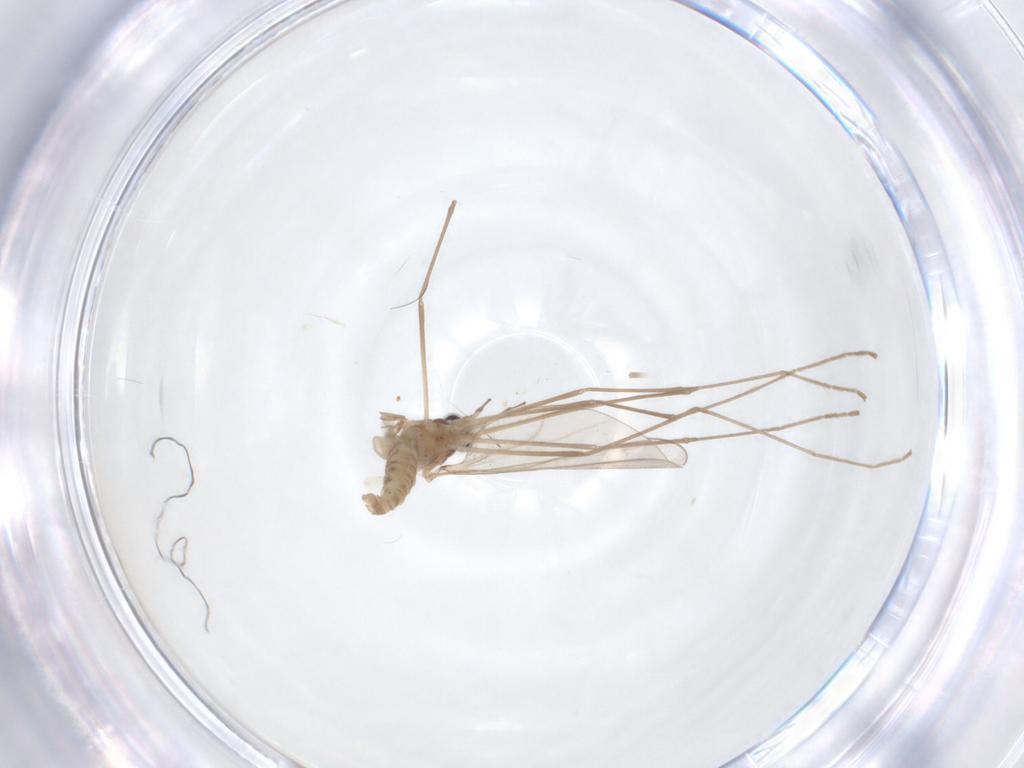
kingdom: Animalia
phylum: Arthropoda
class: Insecta
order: Diptera
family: Cecidomyiidae
